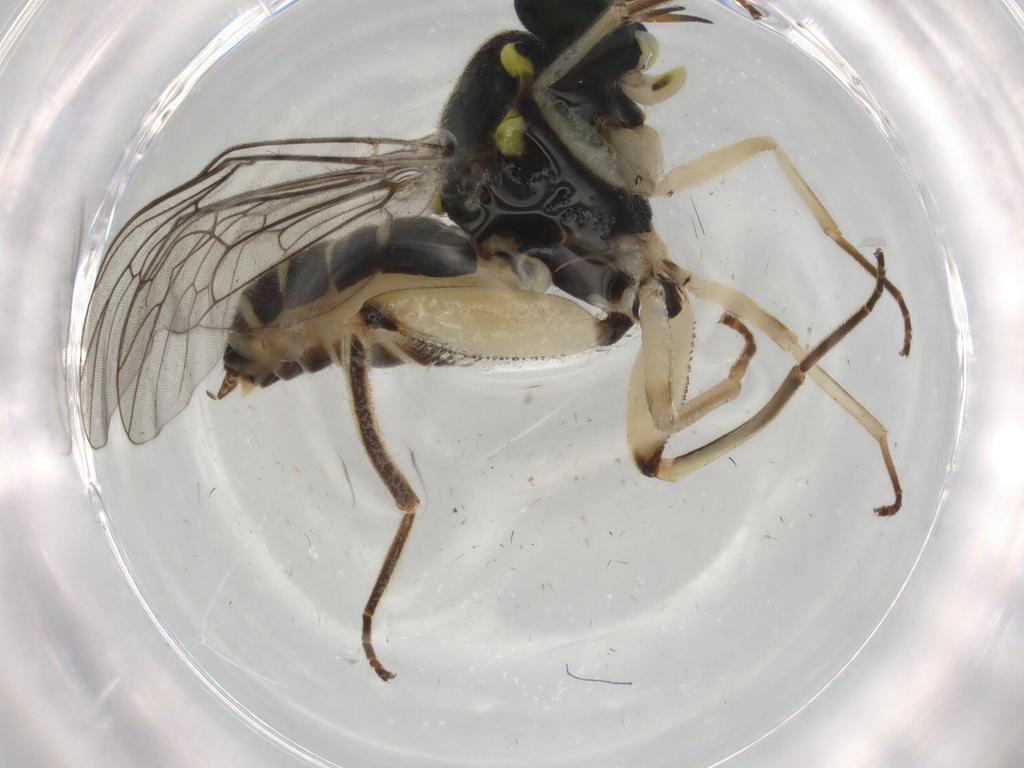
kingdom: Animalia
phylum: Arthropoda
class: Insecta
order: Diptera
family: Sciaridae
